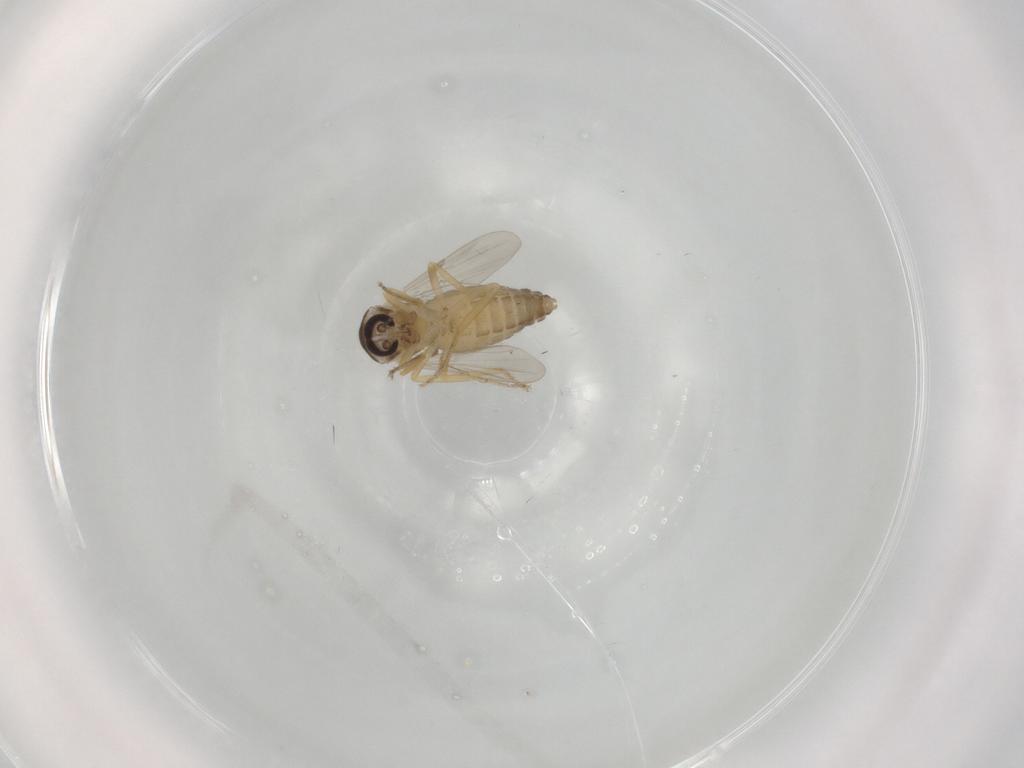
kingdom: Animalia
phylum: Arthropoda
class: Insecta
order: Diptera
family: Ceratopogonidae
